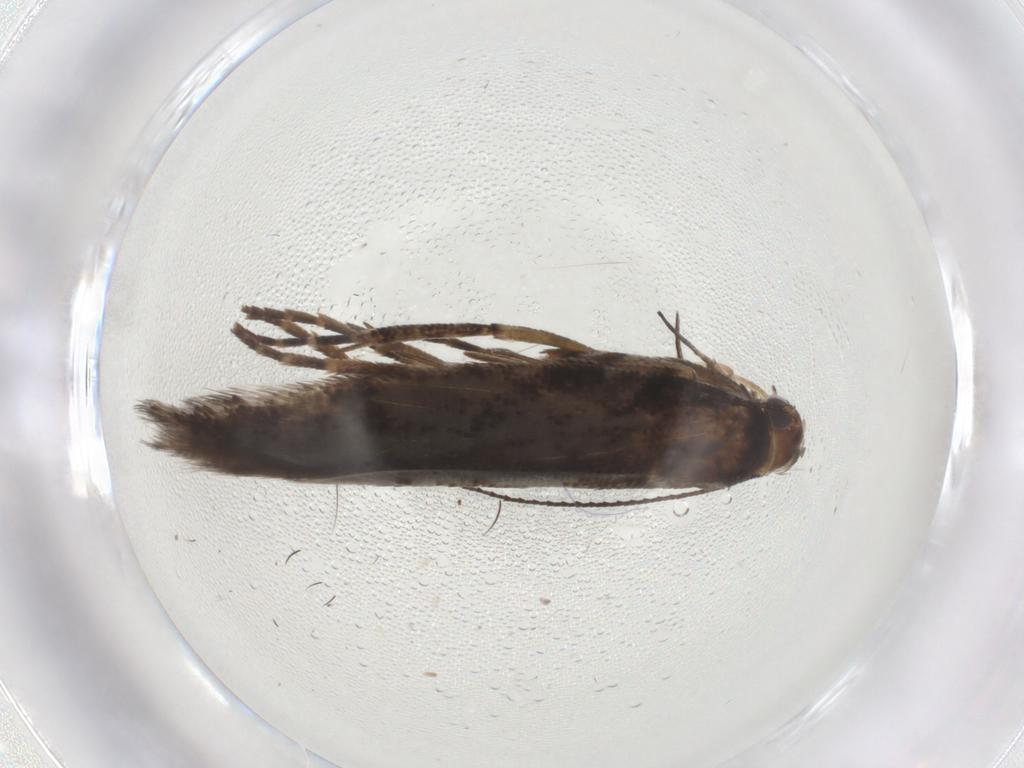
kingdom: Animalia
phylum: Arthropoda
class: Insecta
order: Lepidoptera
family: Gelechiidae
